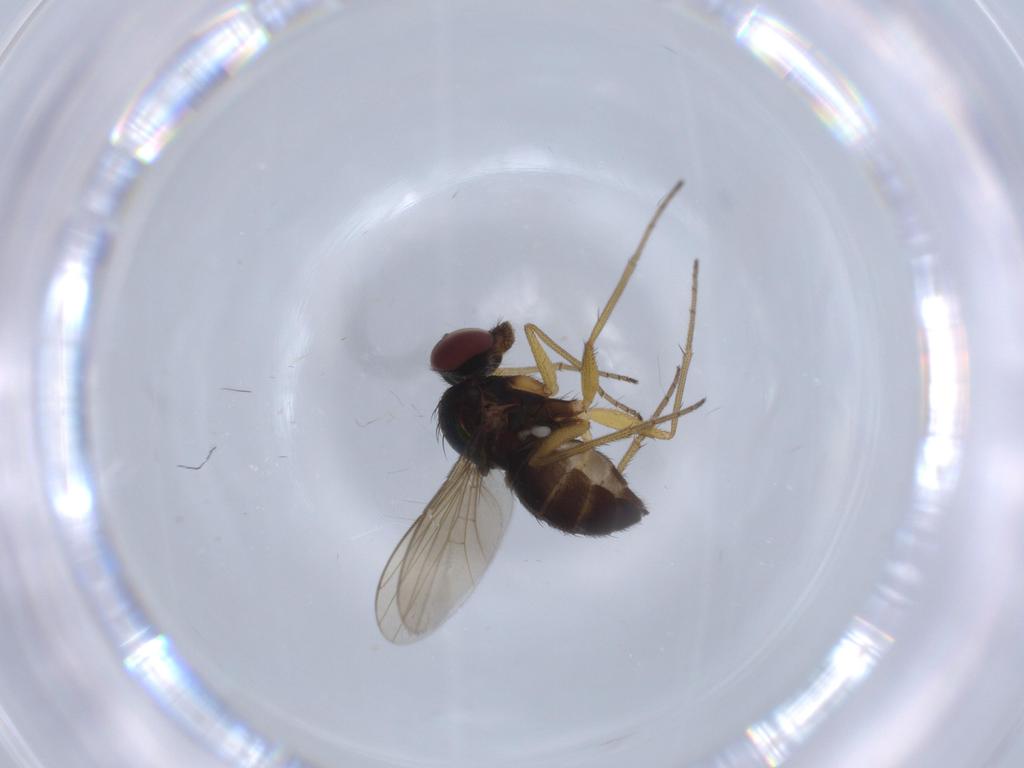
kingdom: Animalia
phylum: Arthropoda
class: Insecta
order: Diptera
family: Dolichopodidae
